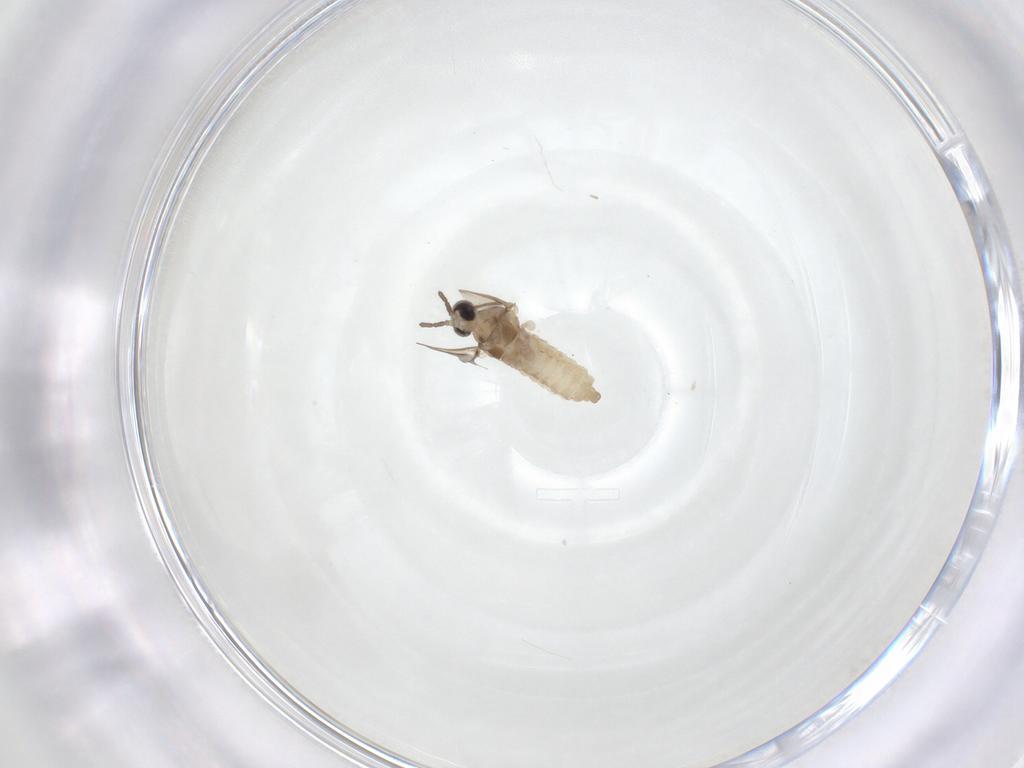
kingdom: Animalia
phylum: Arthropoda
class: Insecta
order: Diptera
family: Cecidomyiidae
